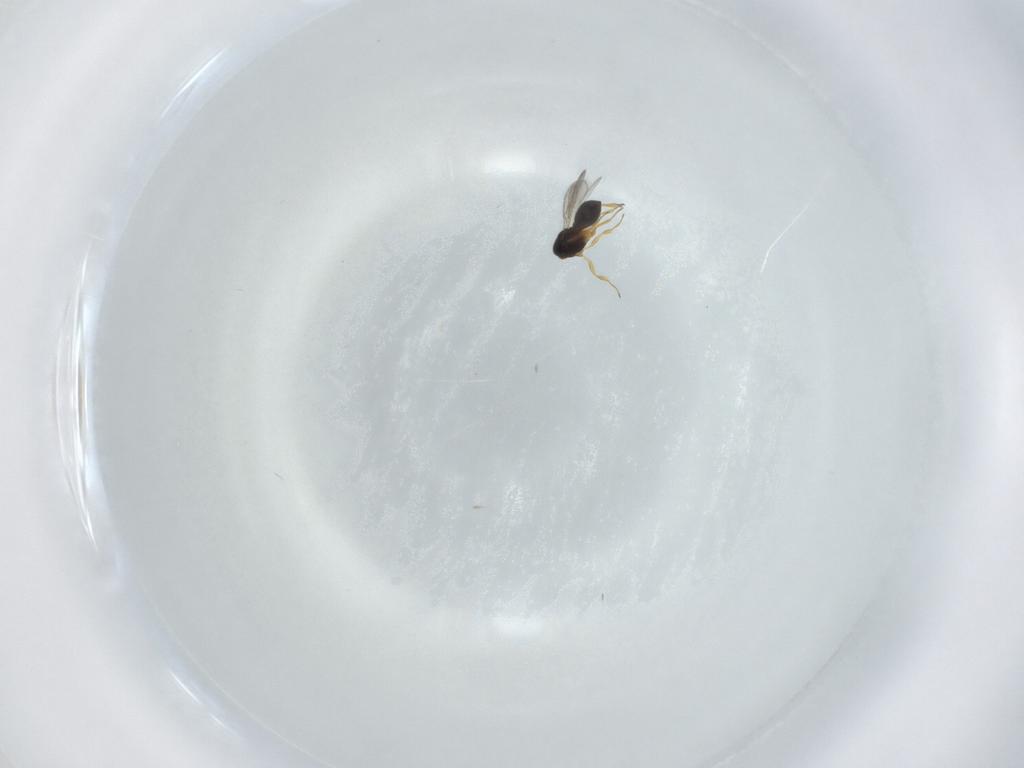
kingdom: Animalia
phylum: Arthropoda
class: Insecta
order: Hymenoptera
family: Scelionidae
